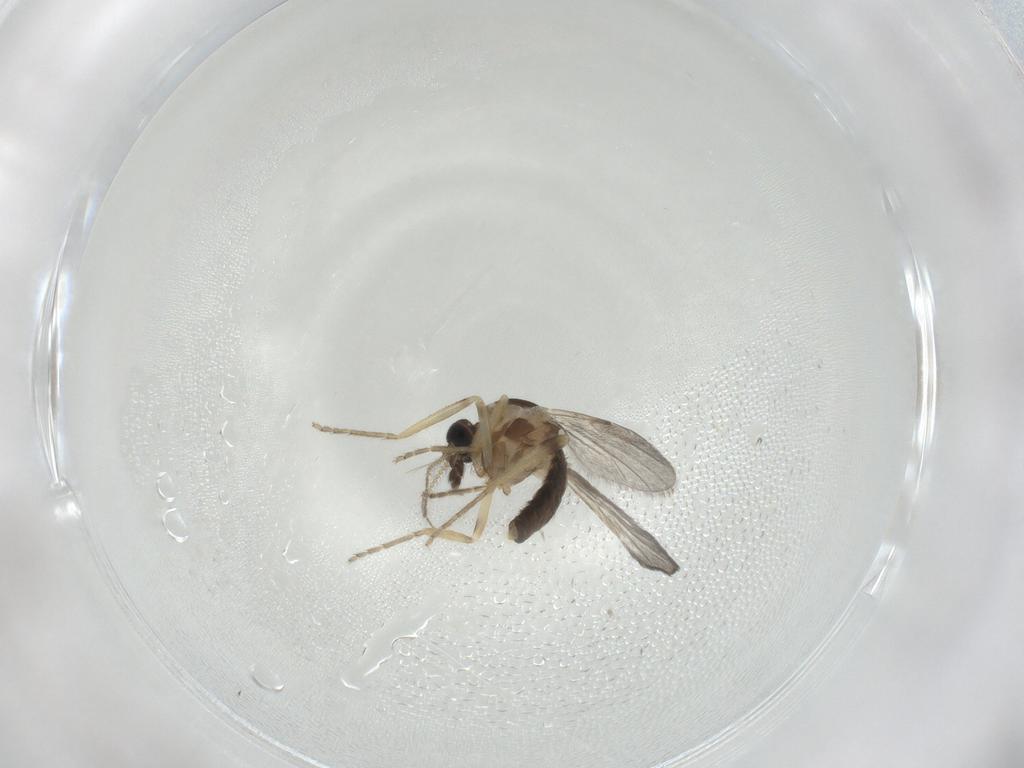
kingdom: Animalia
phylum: Arthropoda
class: Insecta
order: Diptera
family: Ceratopogonidae
